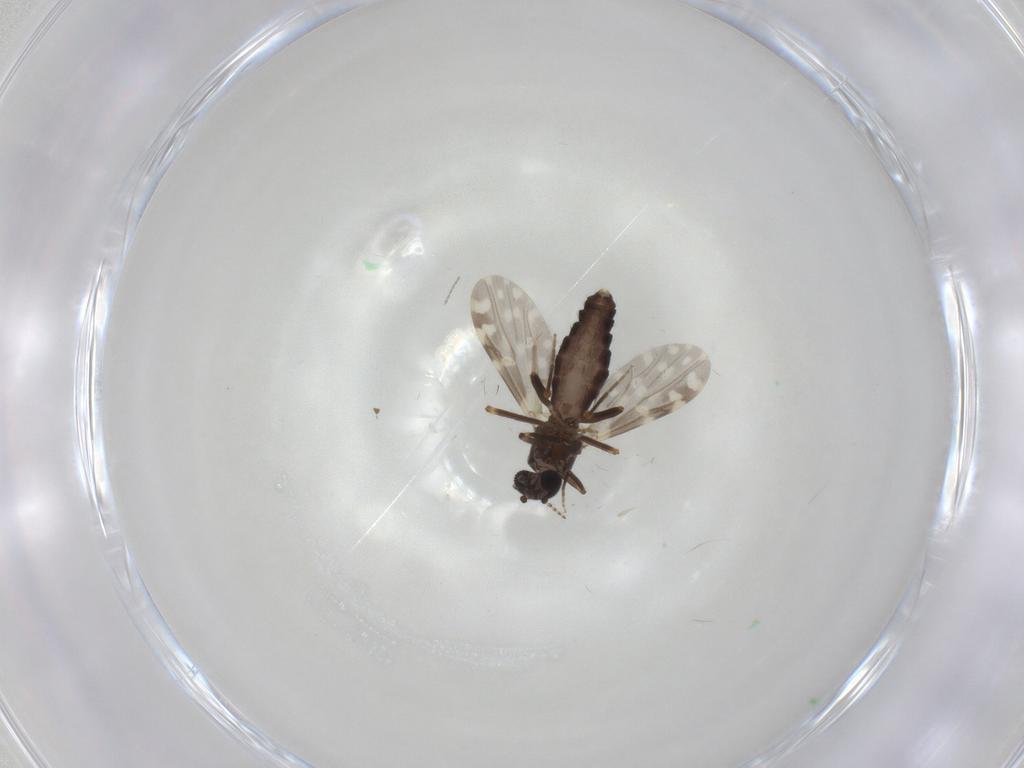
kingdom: Animalia
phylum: Arthropoda
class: Insecta
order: Diptera
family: Ceratopogonidae
